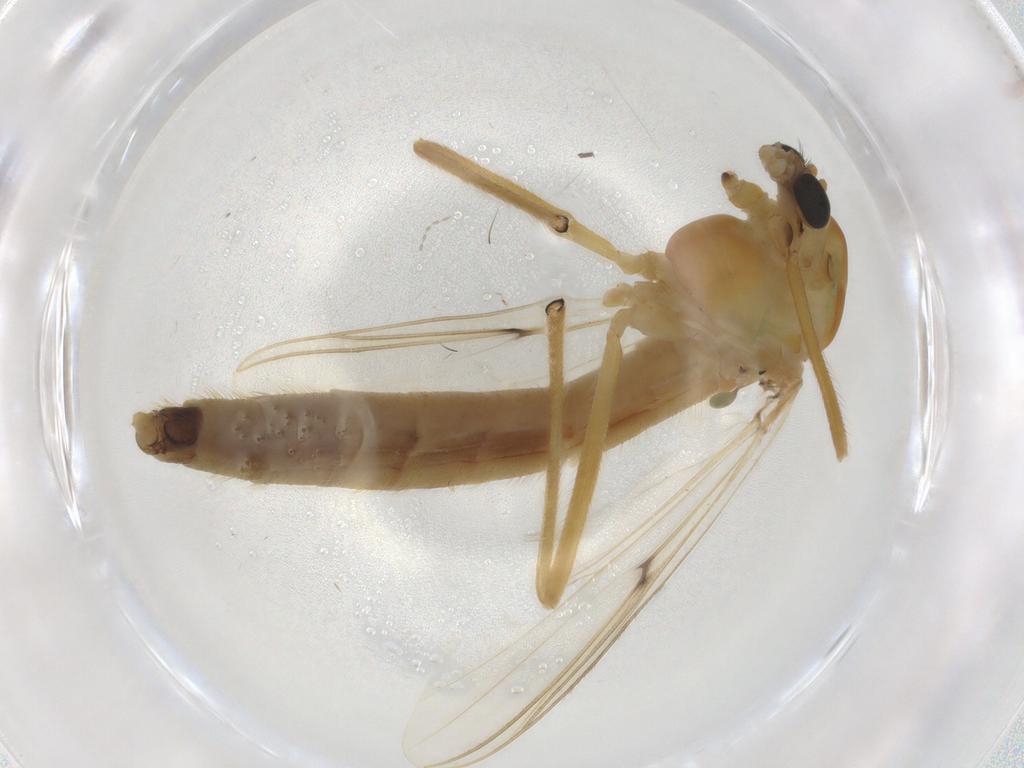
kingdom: Animalia
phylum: Arthropoda
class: Insecta
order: Diptera
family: Chironomidae
